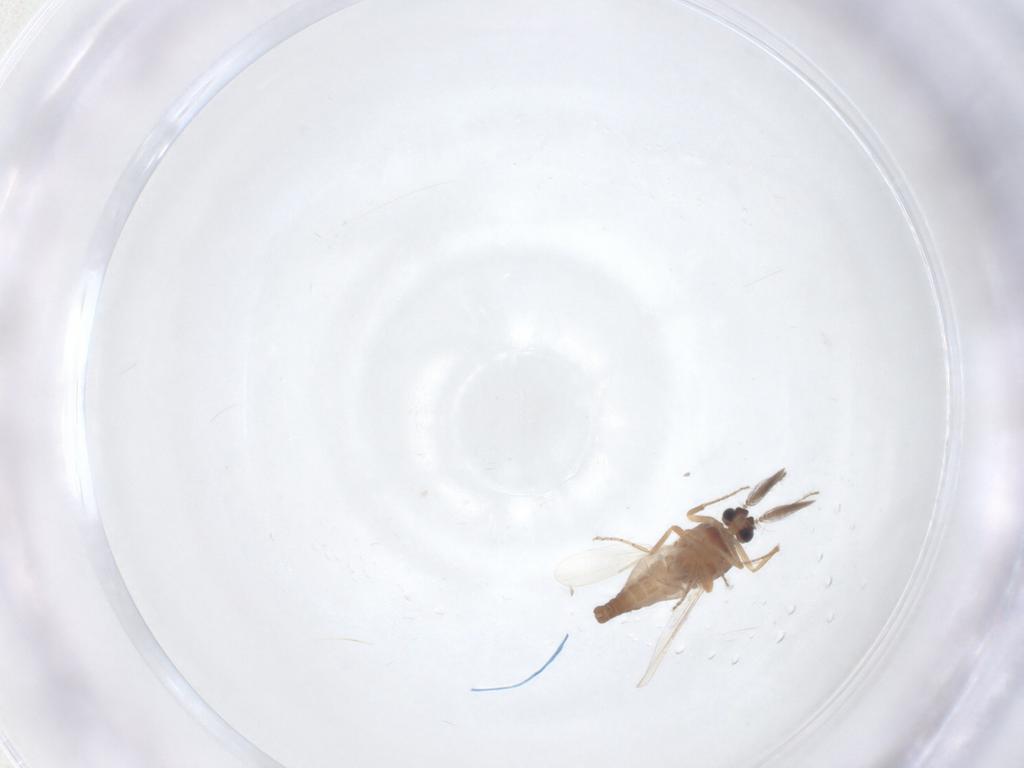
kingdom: Animalia
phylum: Arthropoda
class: Insecta
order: Diptera
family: Ceratopogonidae
